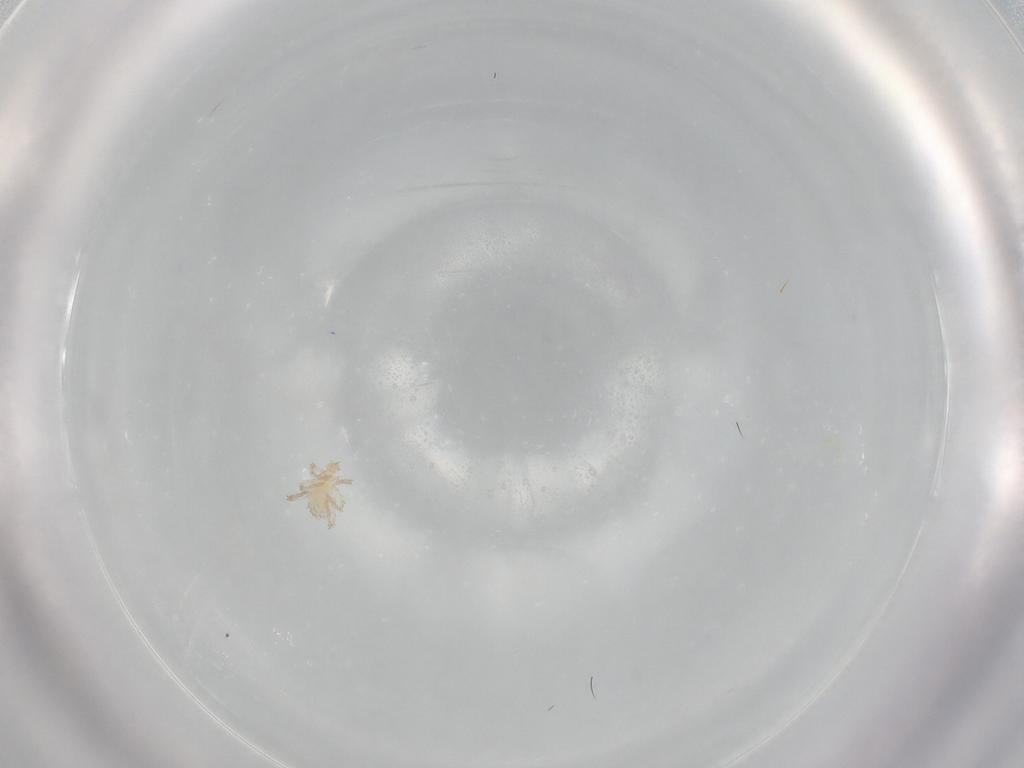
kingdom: Animalia
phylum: Arthropoda
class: Arachnida
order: Trombidiformes
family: Erythraeidae
